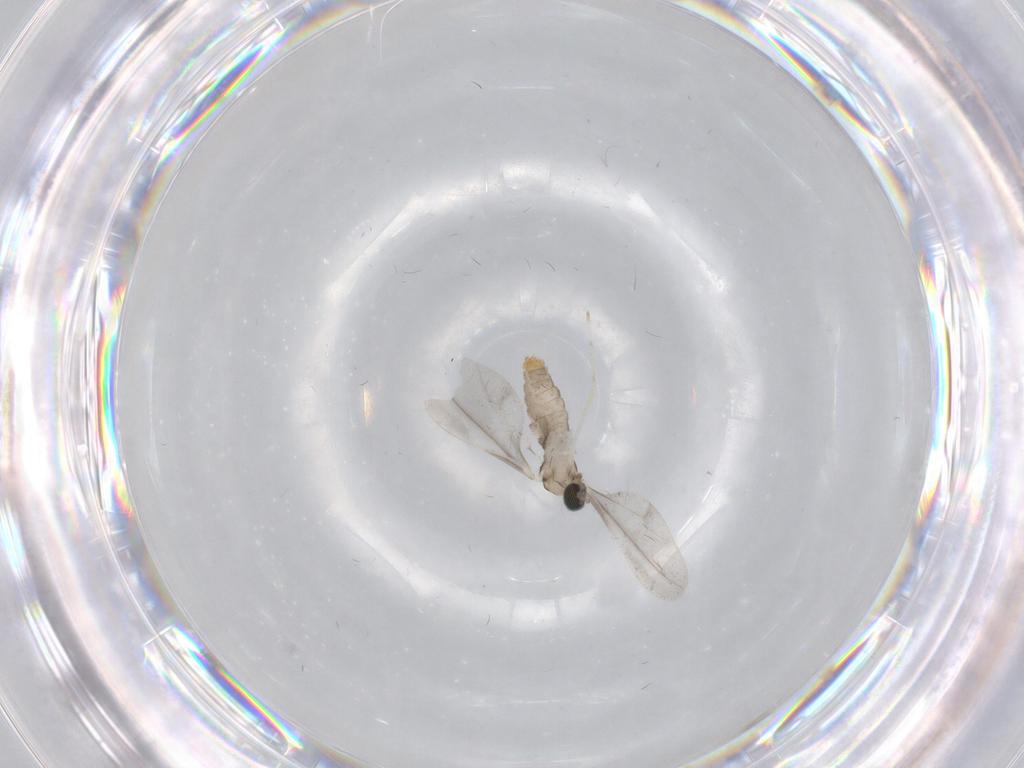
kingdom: Animalia
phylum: Arthropoda
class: Insecta
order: Diptera
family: Cecidomyiidae
